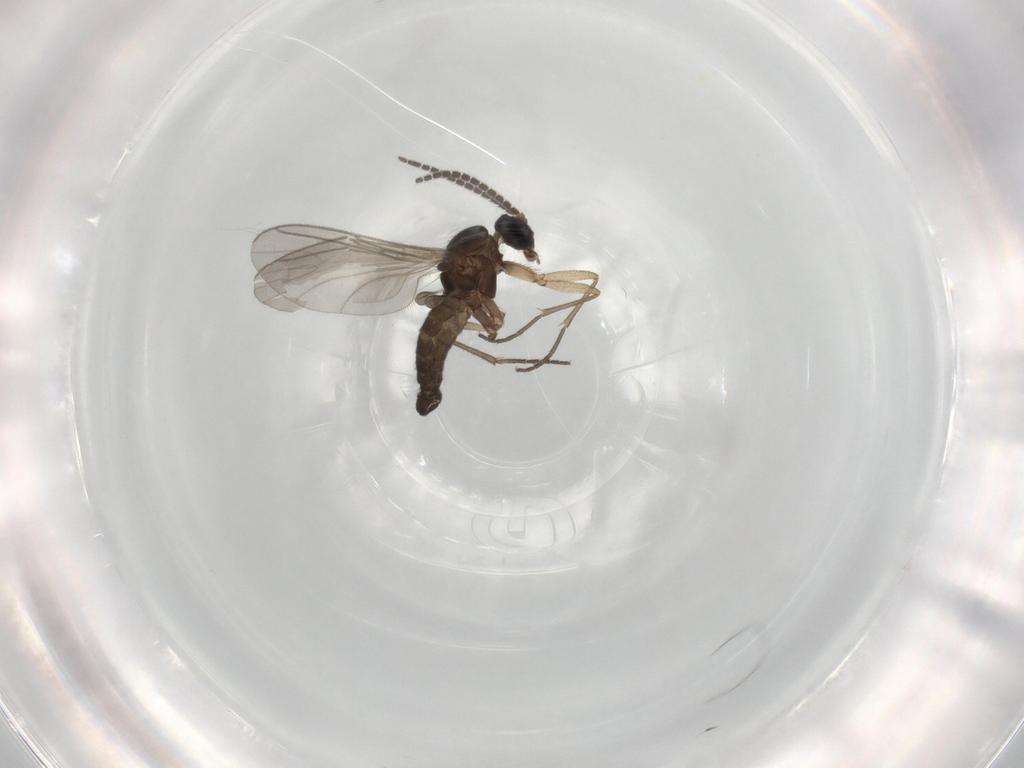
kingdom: Animalia
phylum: Arthropoda
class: Insecta
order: Diptera
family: Sciaridae
